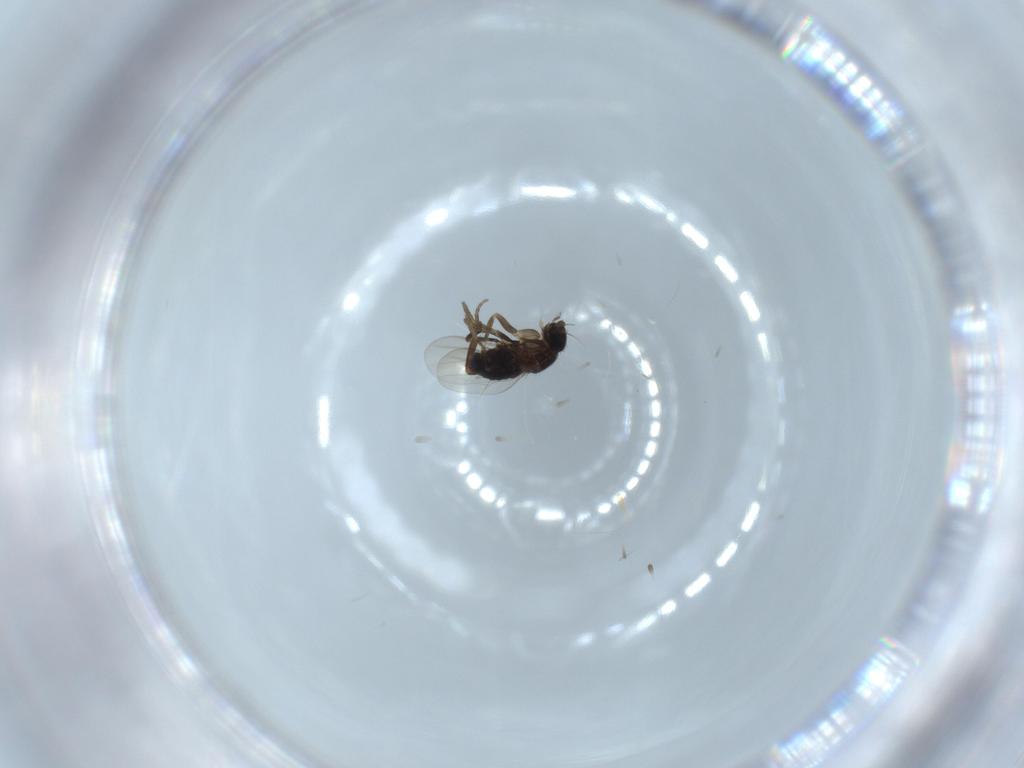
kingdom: Animalia
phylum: Arthropoda
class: Insecta
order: Diptera
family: Phoridae
